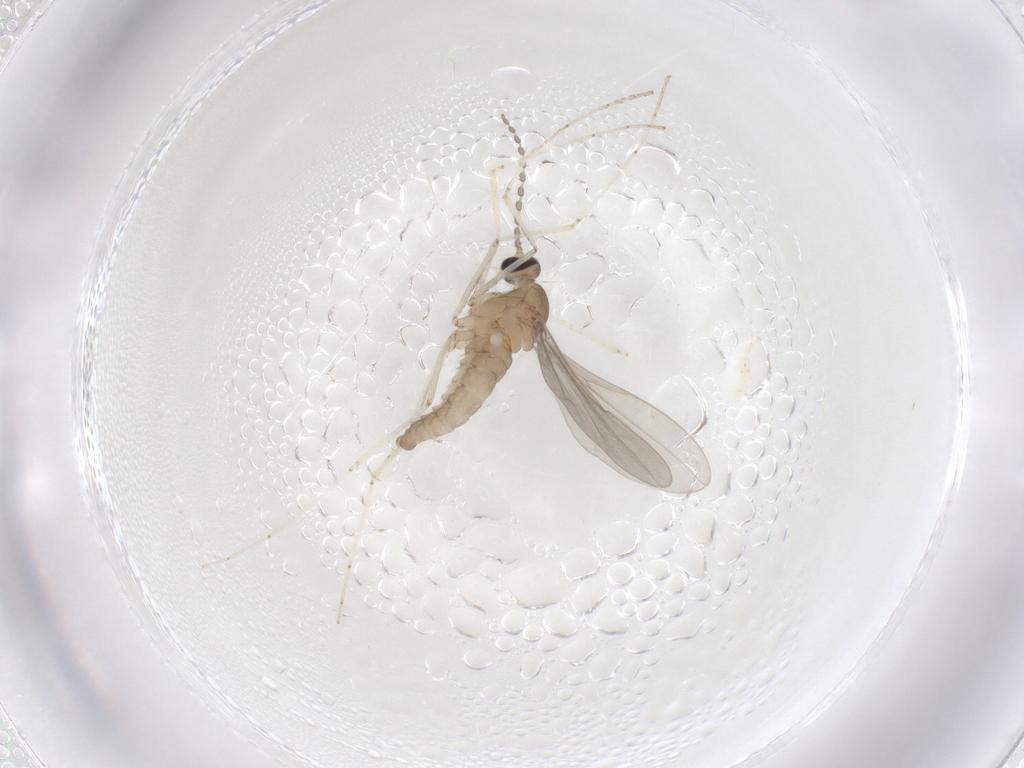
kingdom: Animalia
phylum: Arthropoda
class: Insecta
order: Diptera
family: Cecidomyiidae
